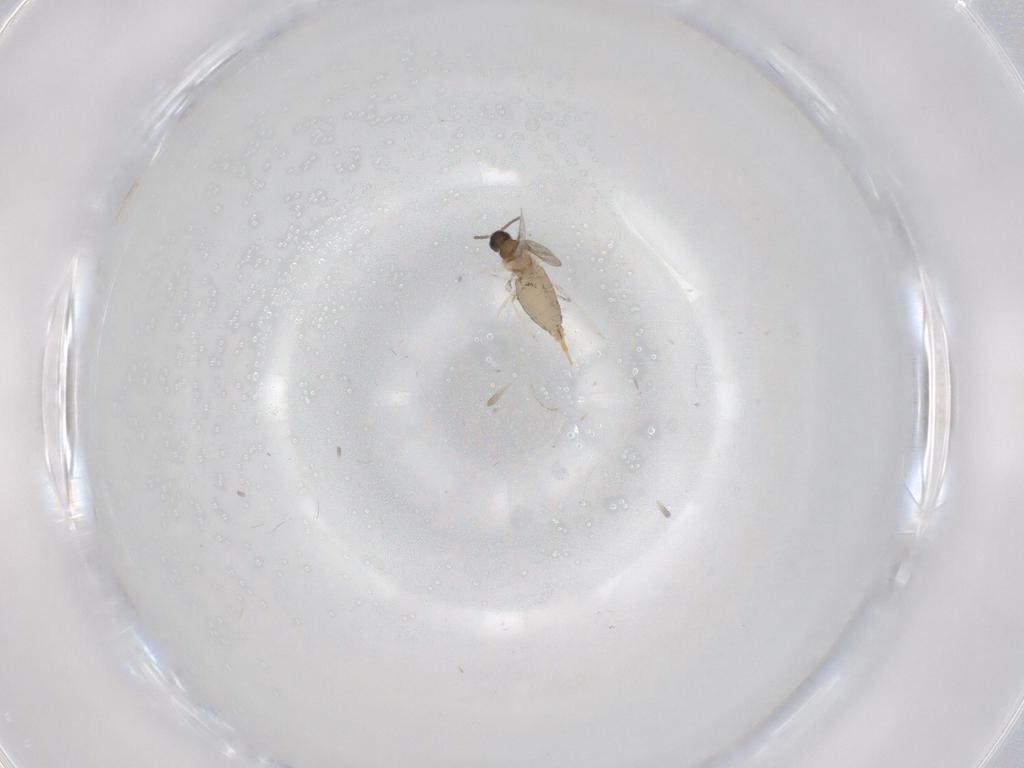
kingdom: Animalia
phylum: Arthropoda
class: Insecta
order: Diptera
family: Cecidomyiidae
